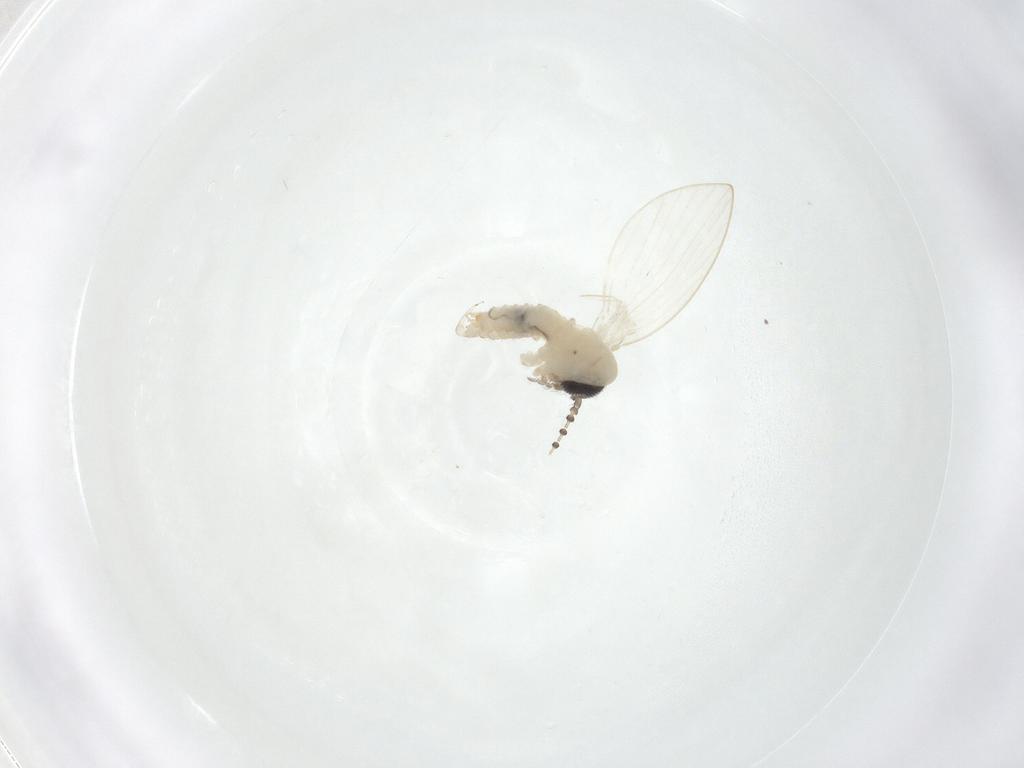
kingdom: Animalia
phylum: Arthropoda
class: Insecta
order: Diptera
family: Psychodidae
